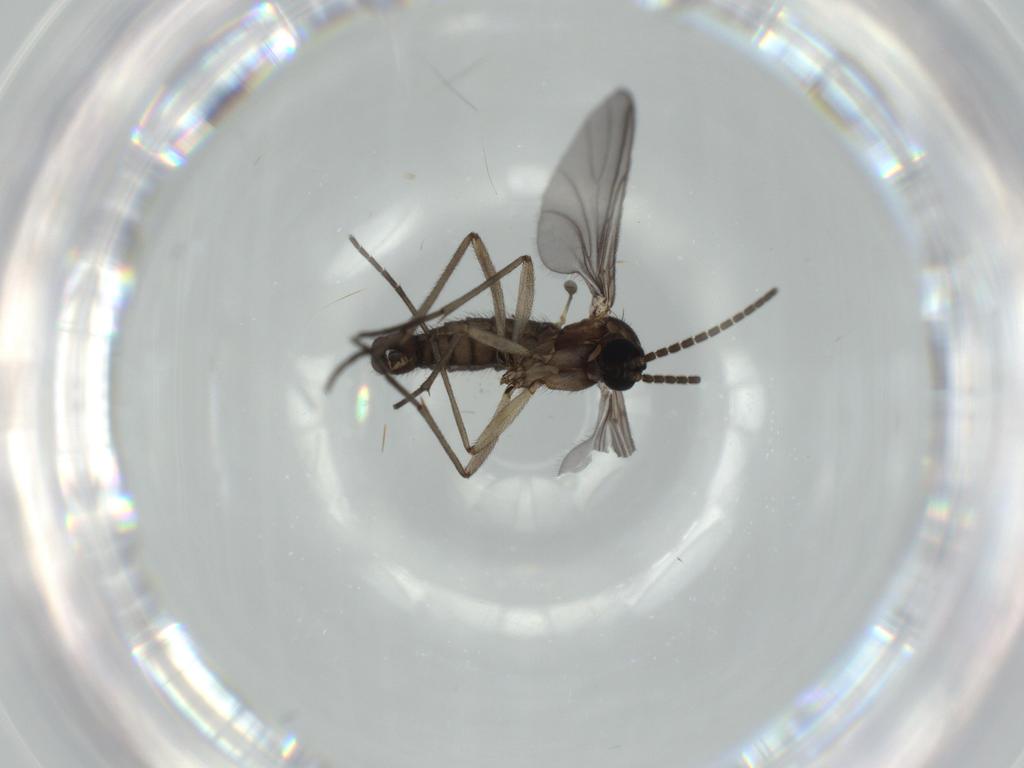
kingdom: Animalia
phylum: Arthropoda
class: Insecta
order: Diptera
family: Sciaridae
